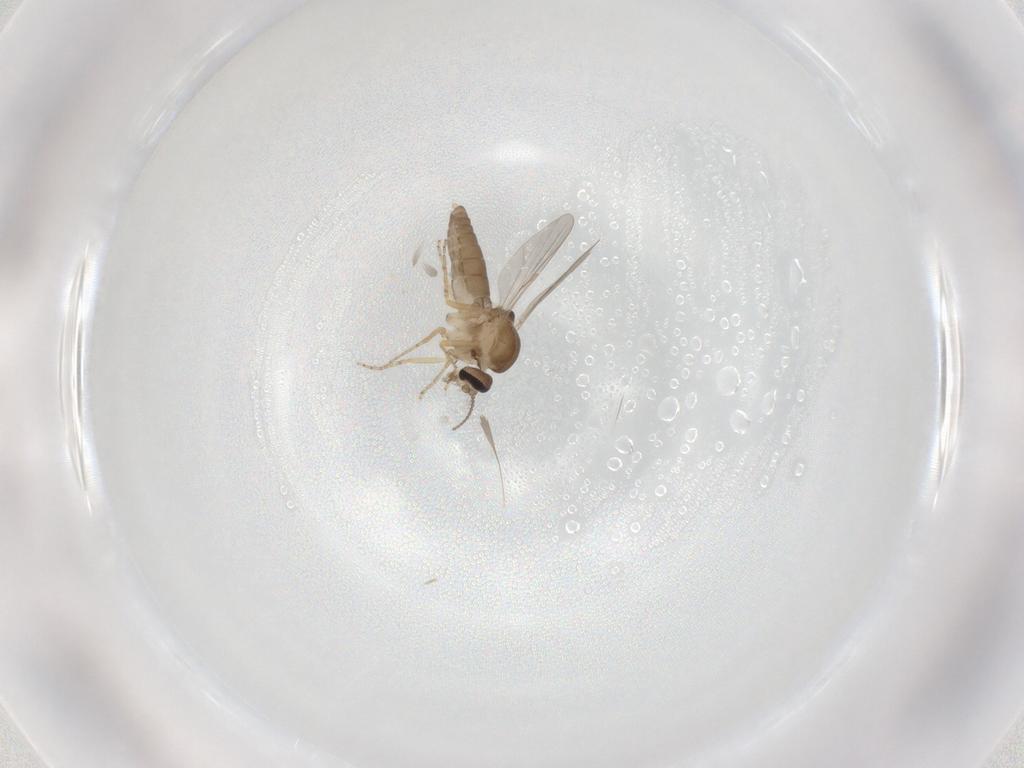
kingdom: Animalia
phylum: Arthropoda
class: Insecta
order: Diptera
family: Ceratopogonidae
